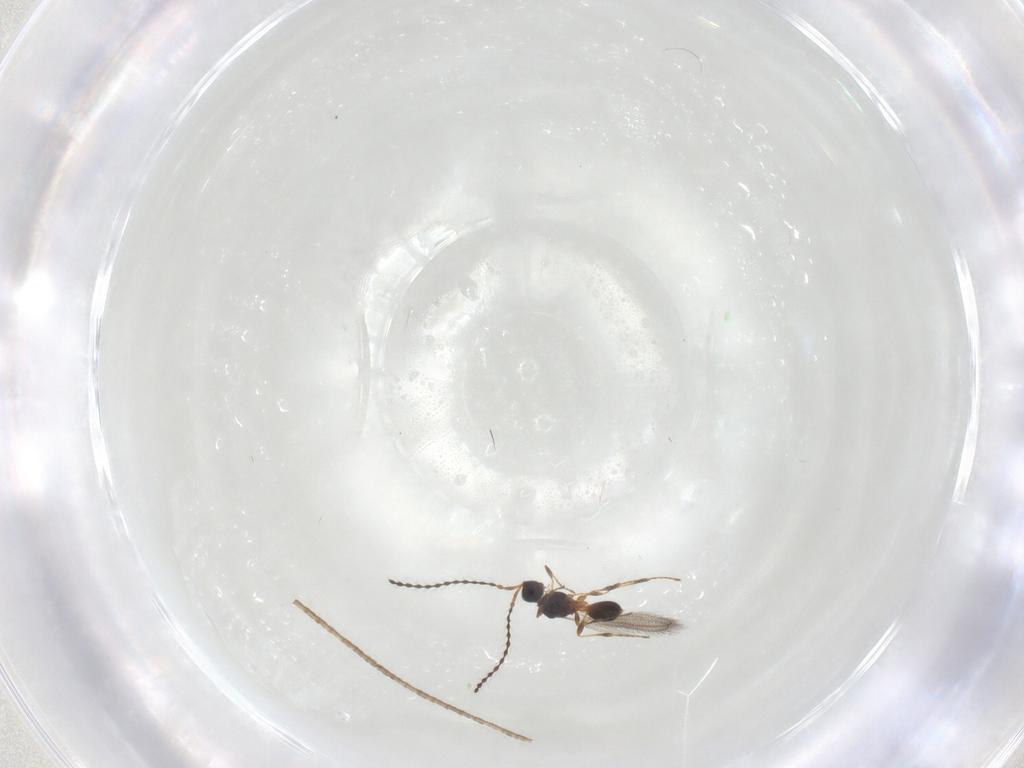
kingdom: Animalia
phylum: Arthropoda
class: Insecta
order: Hymenoptera
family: Diapriidae
